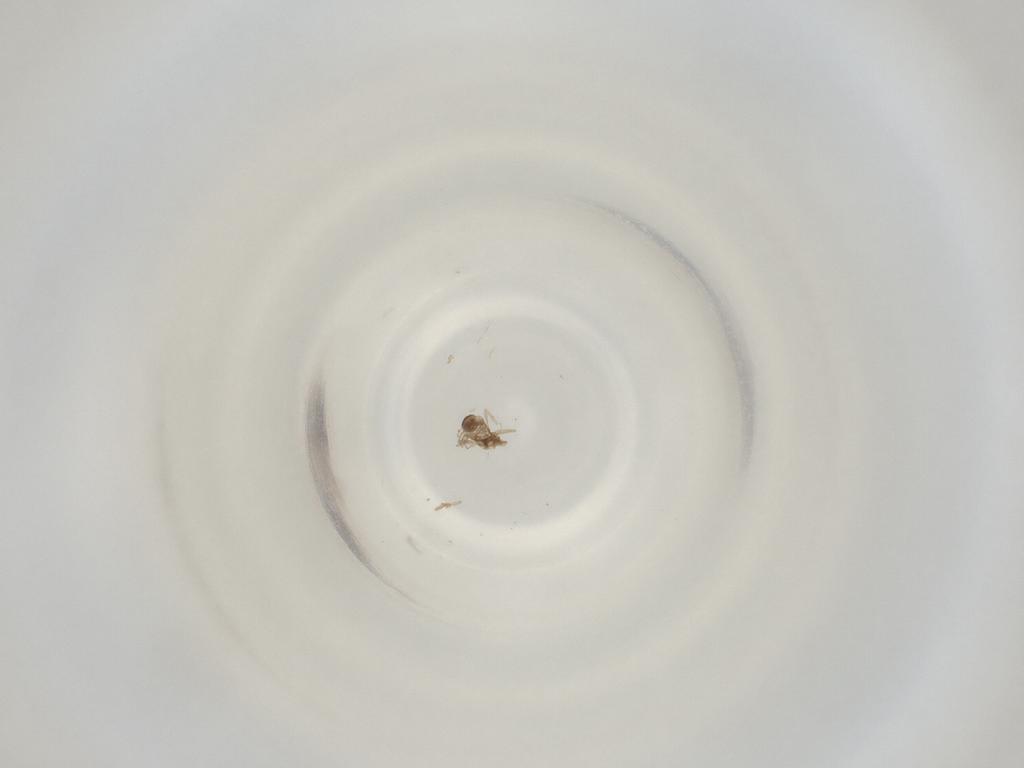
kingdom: Animalia
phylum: Arthropoda
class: Insecta
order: Diptera
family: Cecidomyiidae
